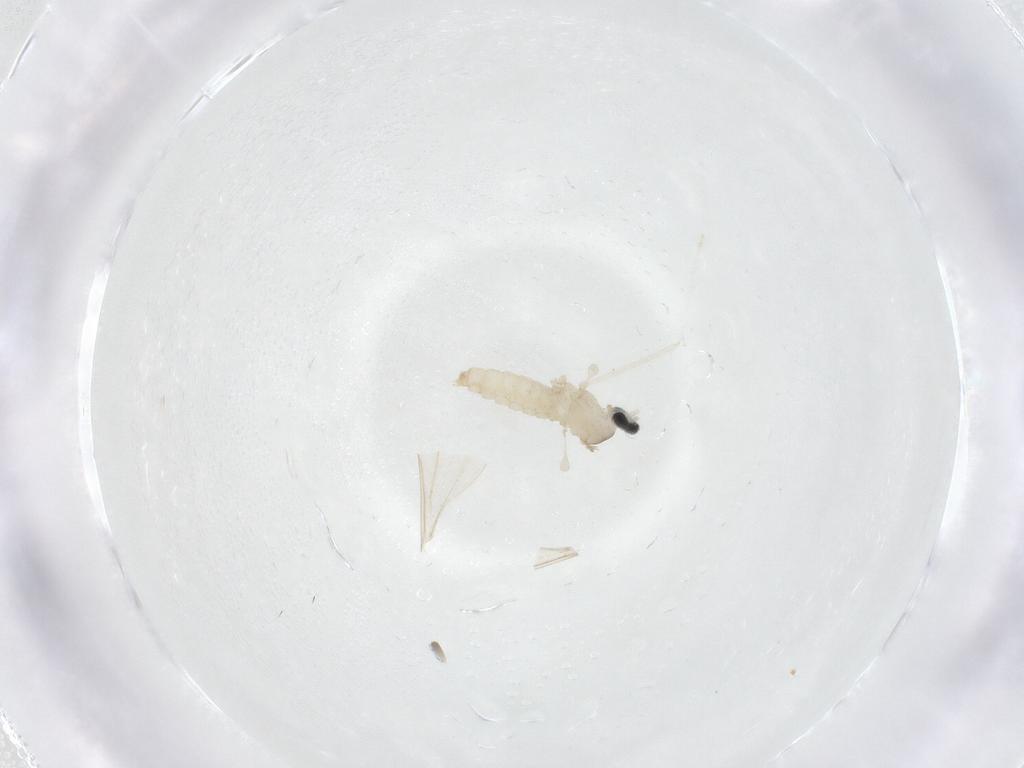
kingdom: Animalia
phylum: Arthropoda
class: Insecta
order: Diptera
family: Cecidomyiidae
